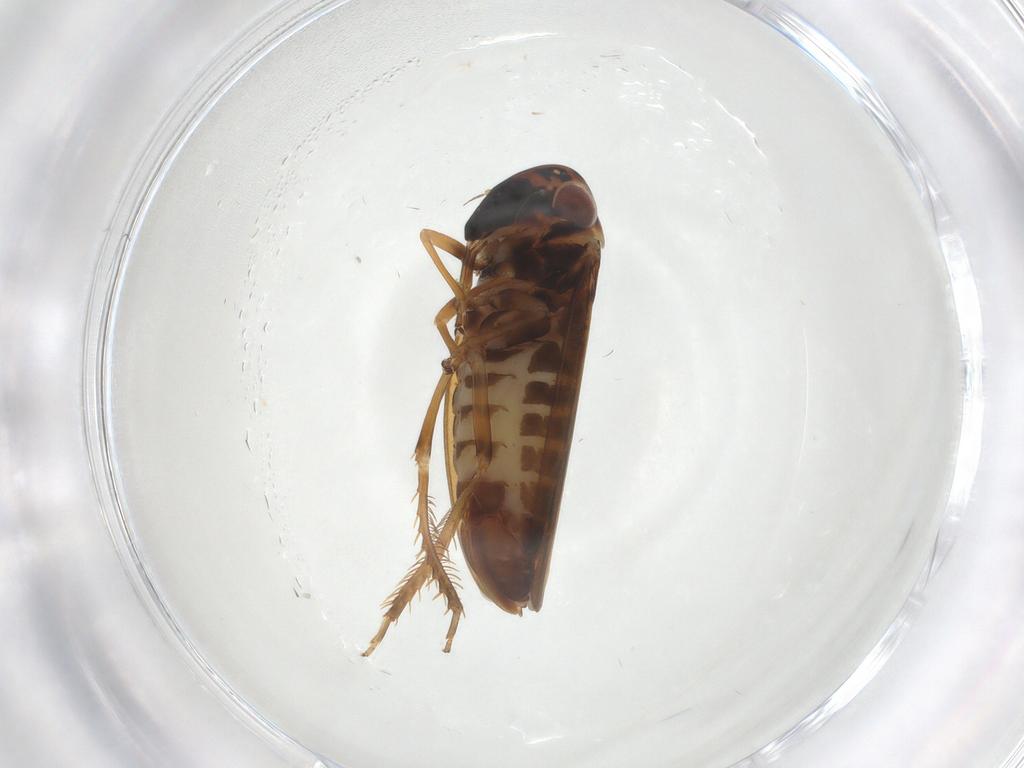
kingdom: Animalia
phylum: Arthropoda
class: Insecta
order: Hemiptera
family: Cicadellidae
